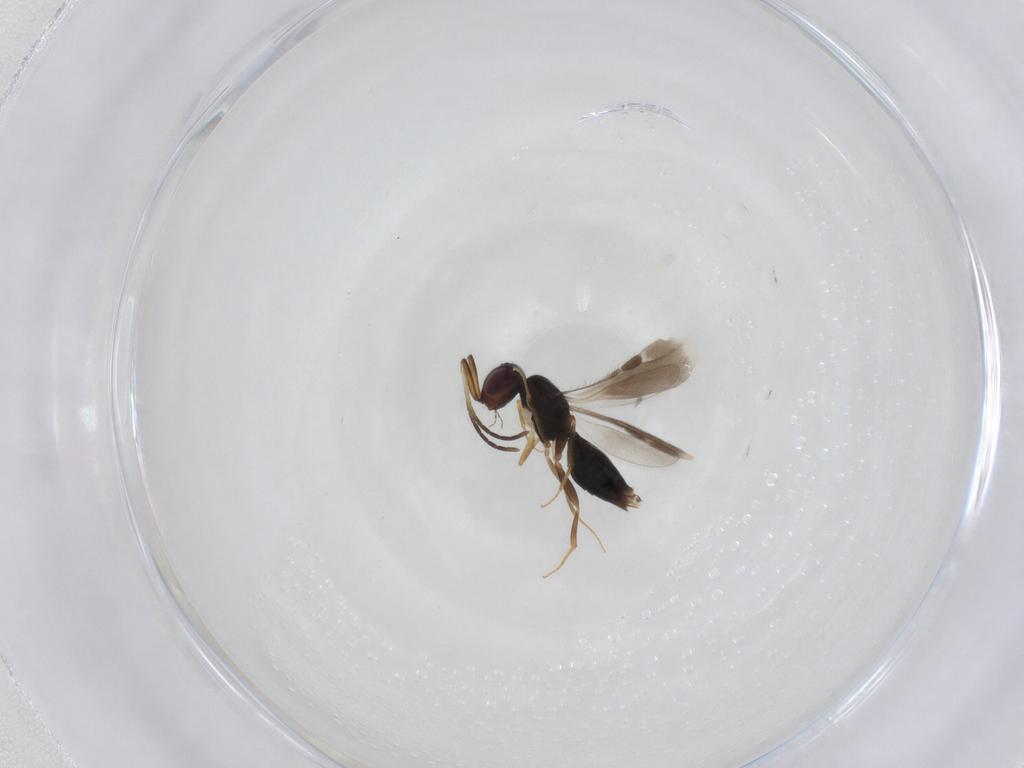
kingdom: Animalia
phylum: Arthropoda
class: Insecta
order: Hymenoptera
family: Megaspilidae
